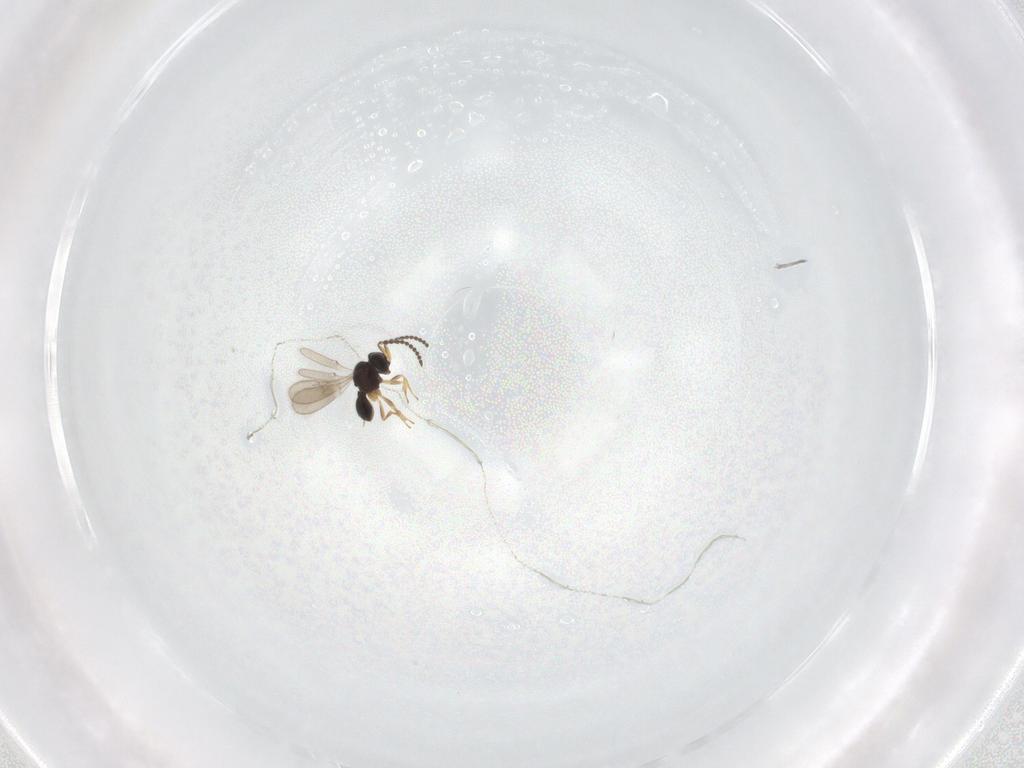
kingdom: Animalia
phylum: Arthropoda
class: Insecta
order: Hymenoptera
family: Scelionidae
